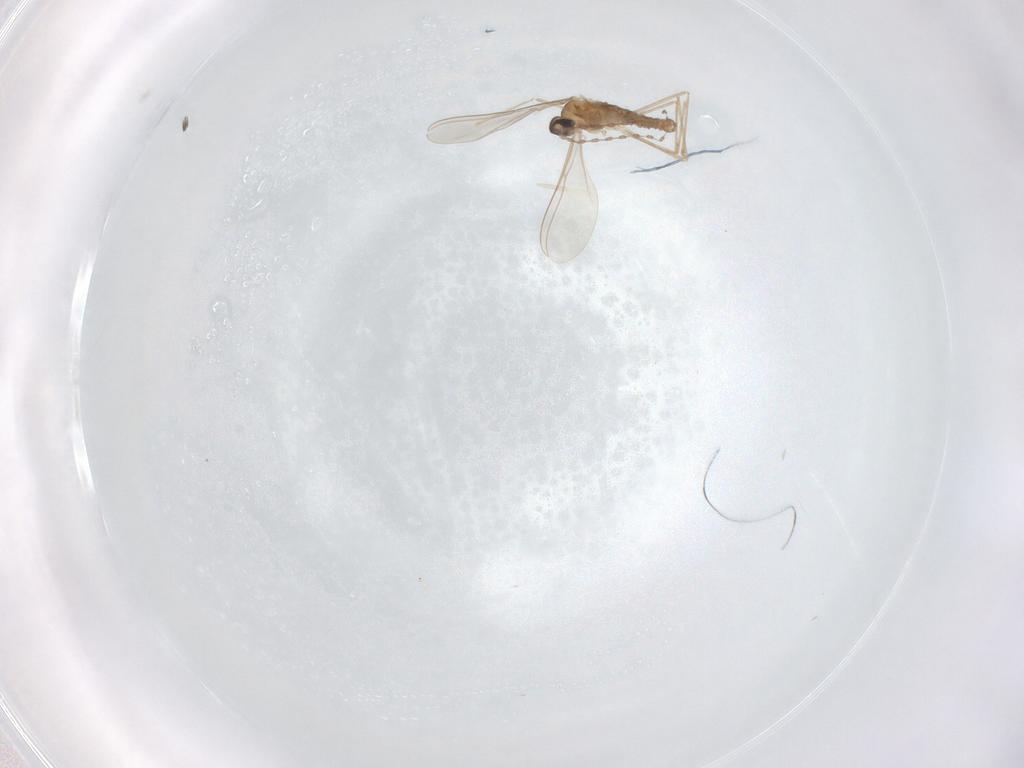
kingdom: Animalia
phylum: Arthropoda
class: Insecta
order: Diptera
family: Cecidomyiidae
